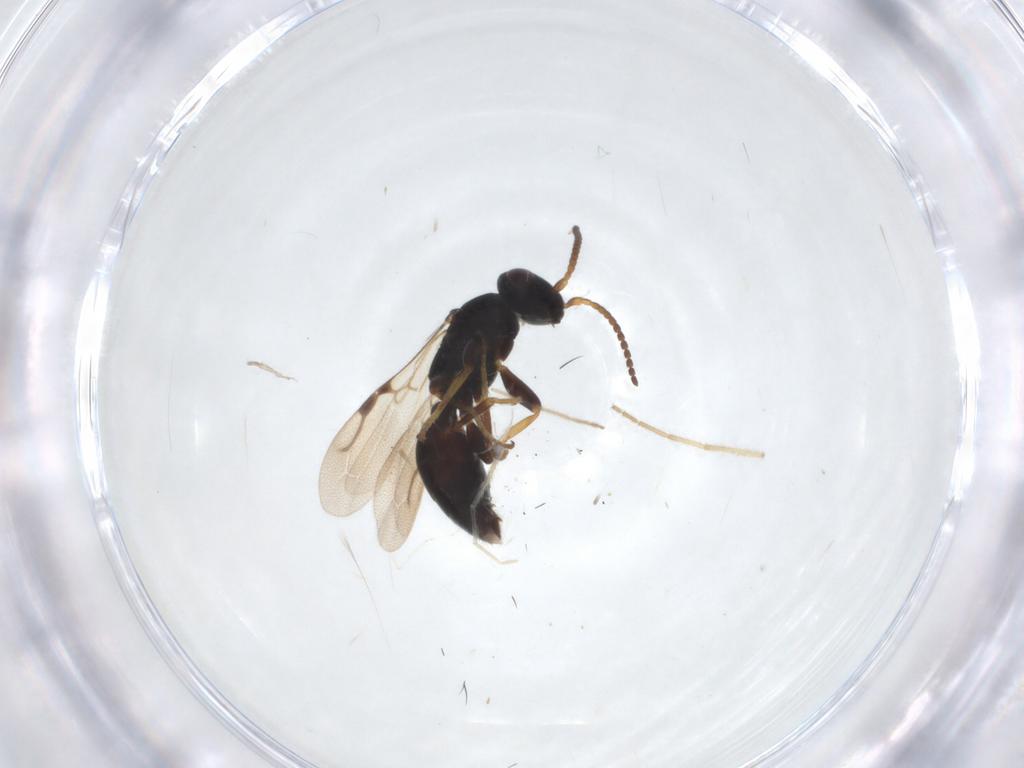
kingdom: Animalia
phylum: Arthropoda
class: Insecta
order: Hymenoptera
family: Bethylidae
